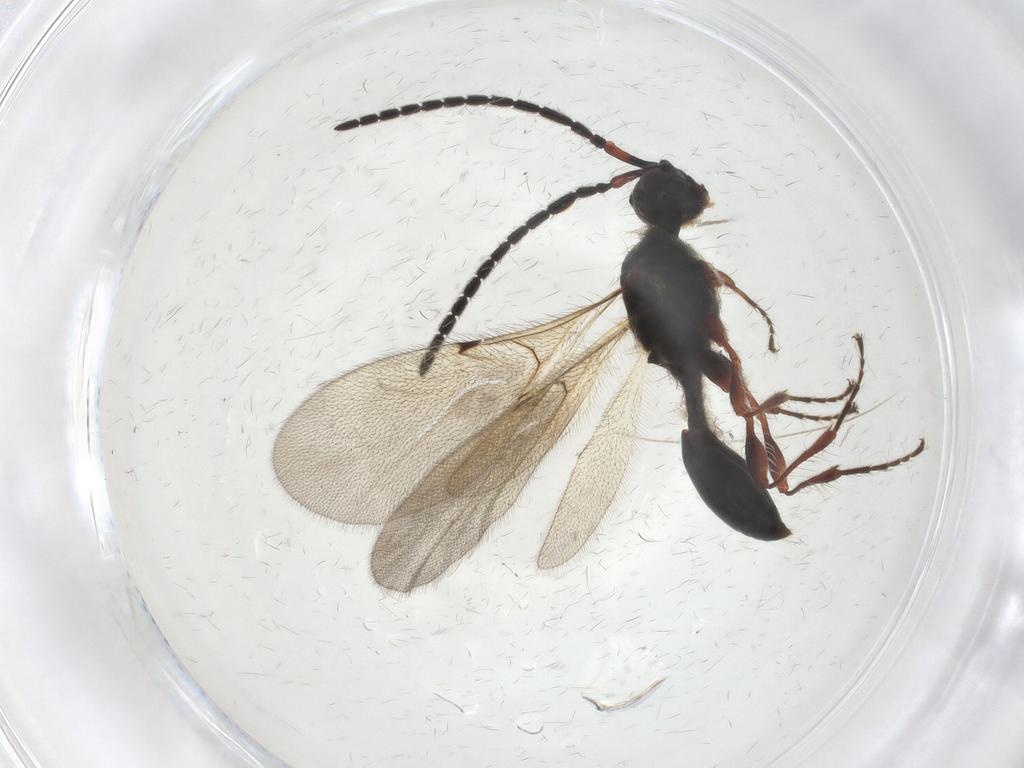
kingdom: Animalia
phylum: Arthropoda
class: Insecta
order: Hymenoptera
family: Diapriidae
